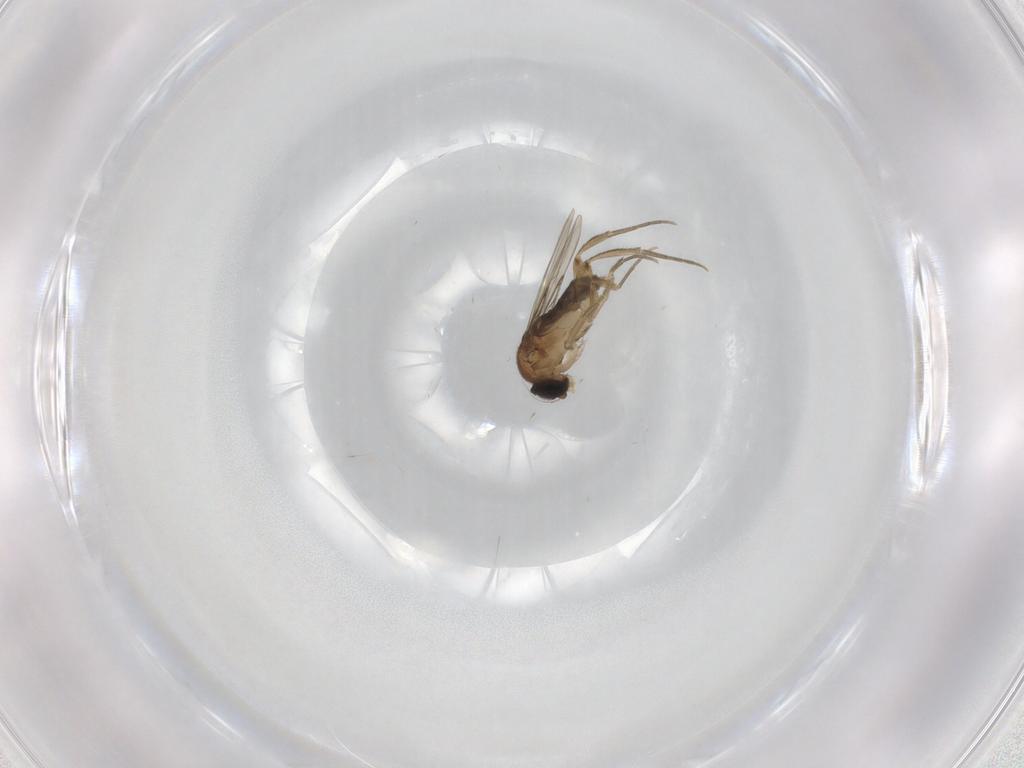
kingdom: Animalia
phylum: Arthropoda
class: Insecta
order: Diptera
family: Phoridae
